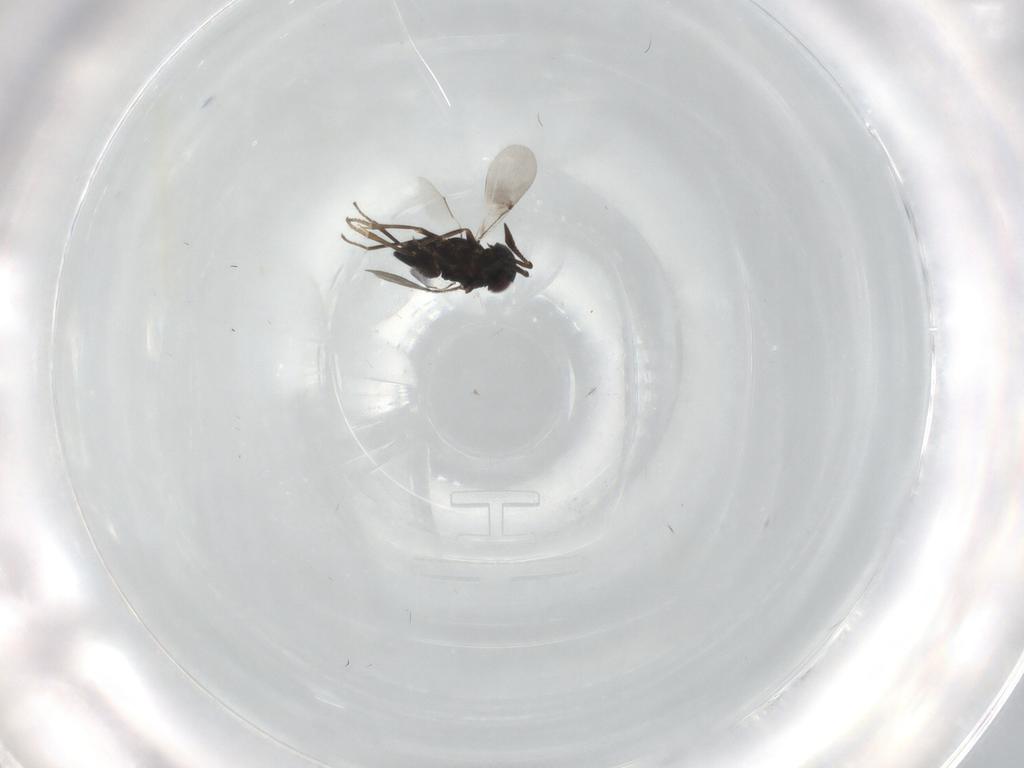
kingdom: Animalia
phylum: Arthropoda
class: Insecta
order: Hymenoptera
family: Encyrtidae
